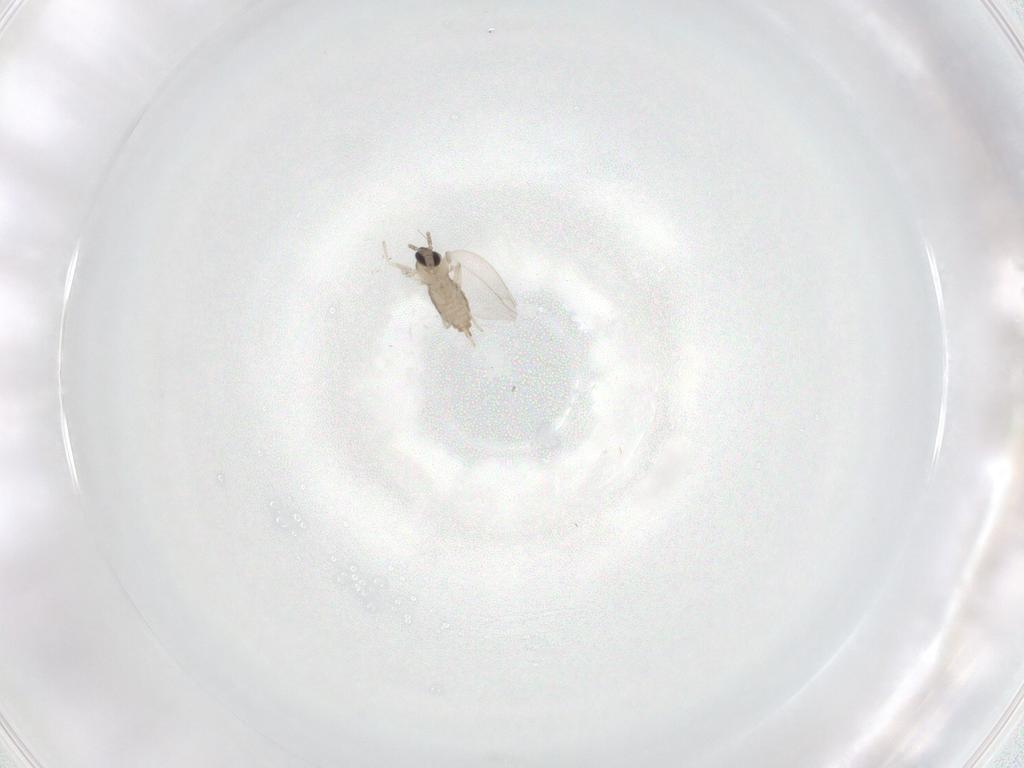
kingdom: Animalia
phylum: Arthropoda
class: Insecta
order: Diptera
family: Cecidomyiidae
